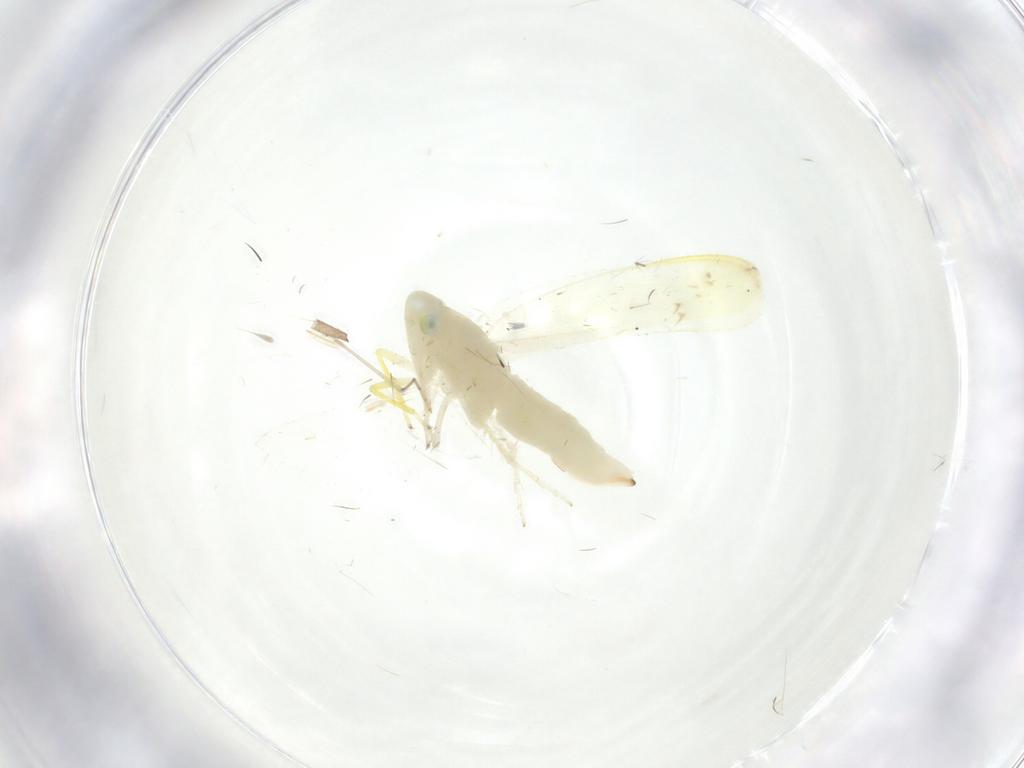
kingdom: Animalia
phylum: Arthropoda
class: Insecta
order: Hemiptera
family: Cicadellidae
